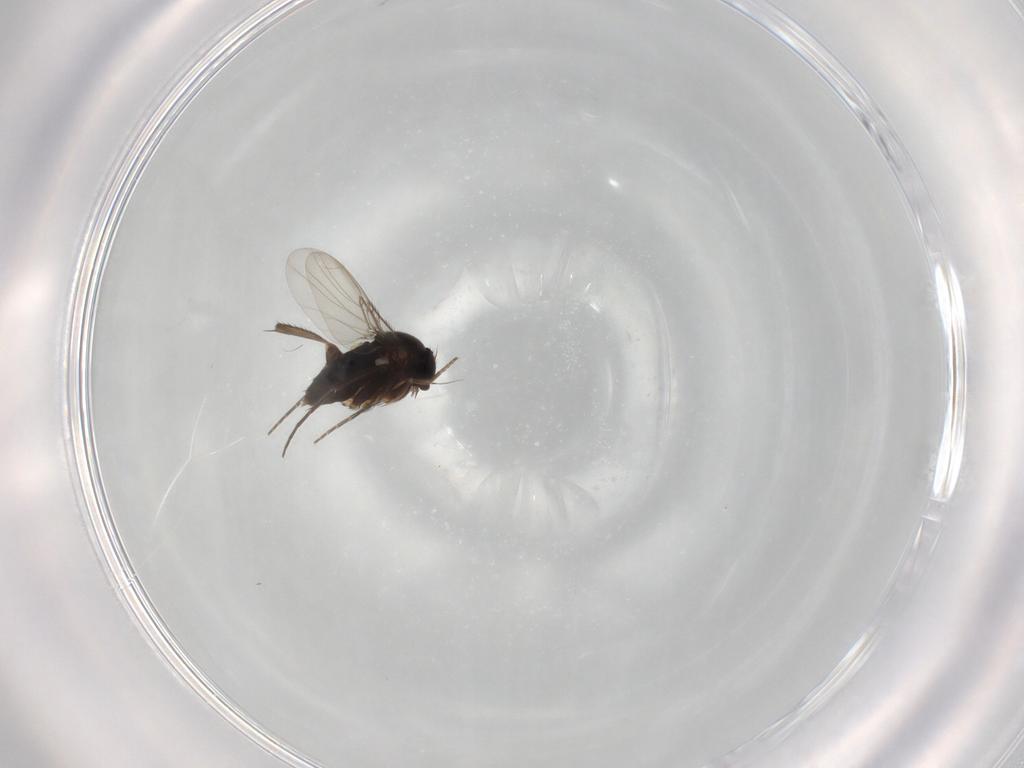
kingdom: Animalia
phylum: Arthropoda
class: Insecta
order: Diptera
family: Phoridae
